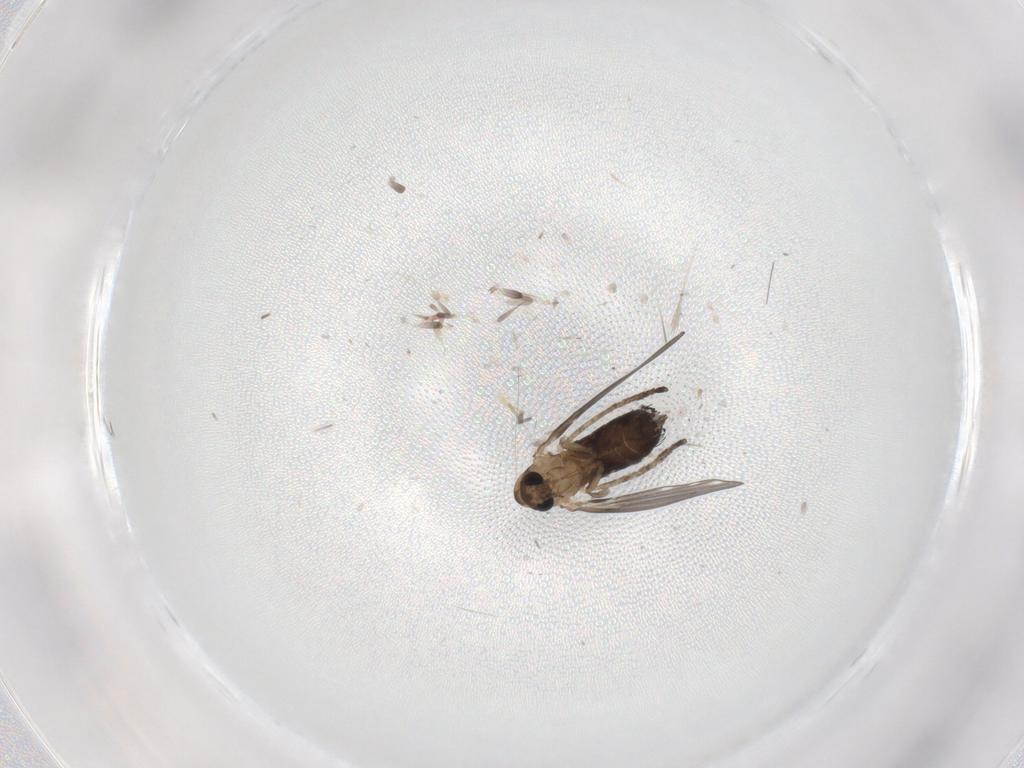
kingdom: Animalia
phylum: Arthropoda
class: Insecta
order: Diptera
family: Psychodidae
